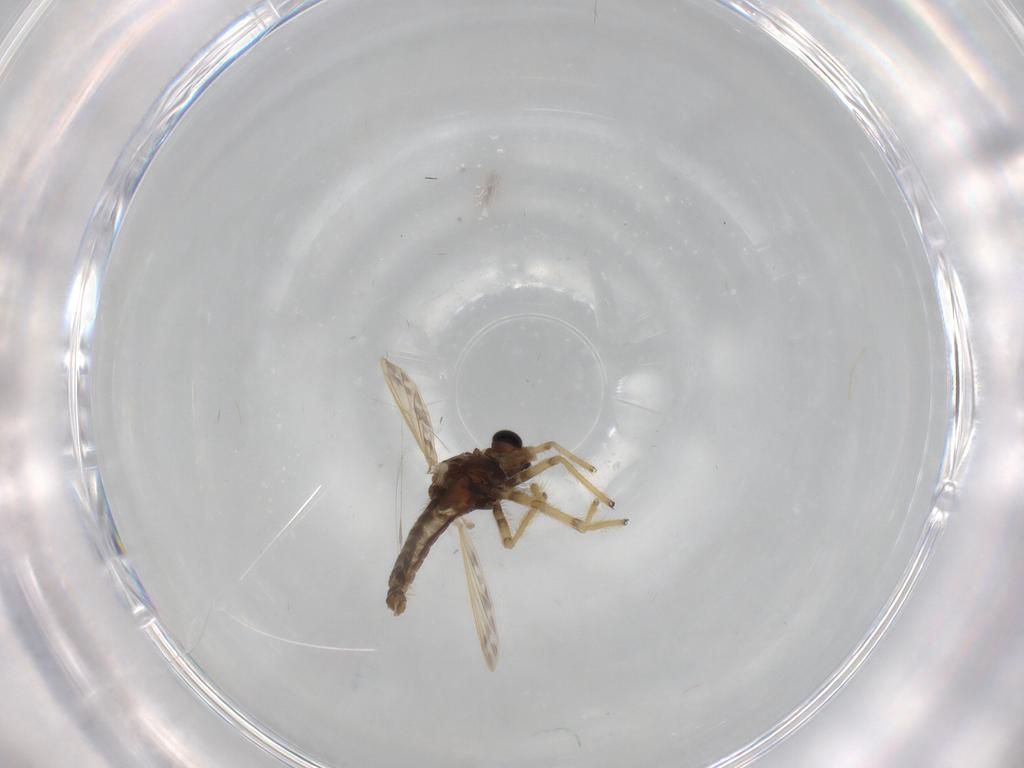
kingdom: Animalia
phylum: Arthropoda
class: Insecta
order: Diptera
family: Chironomidae
